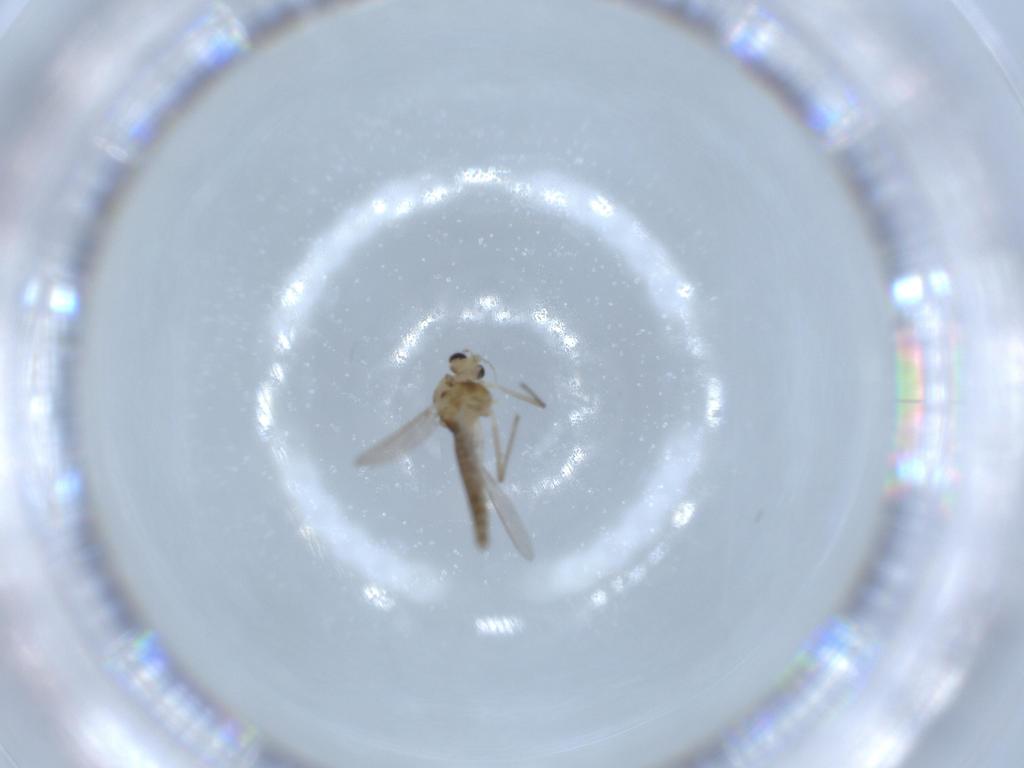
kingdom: Animalia
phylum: Arthropoda
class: Insecta
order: Diptera
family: Chironomidae
